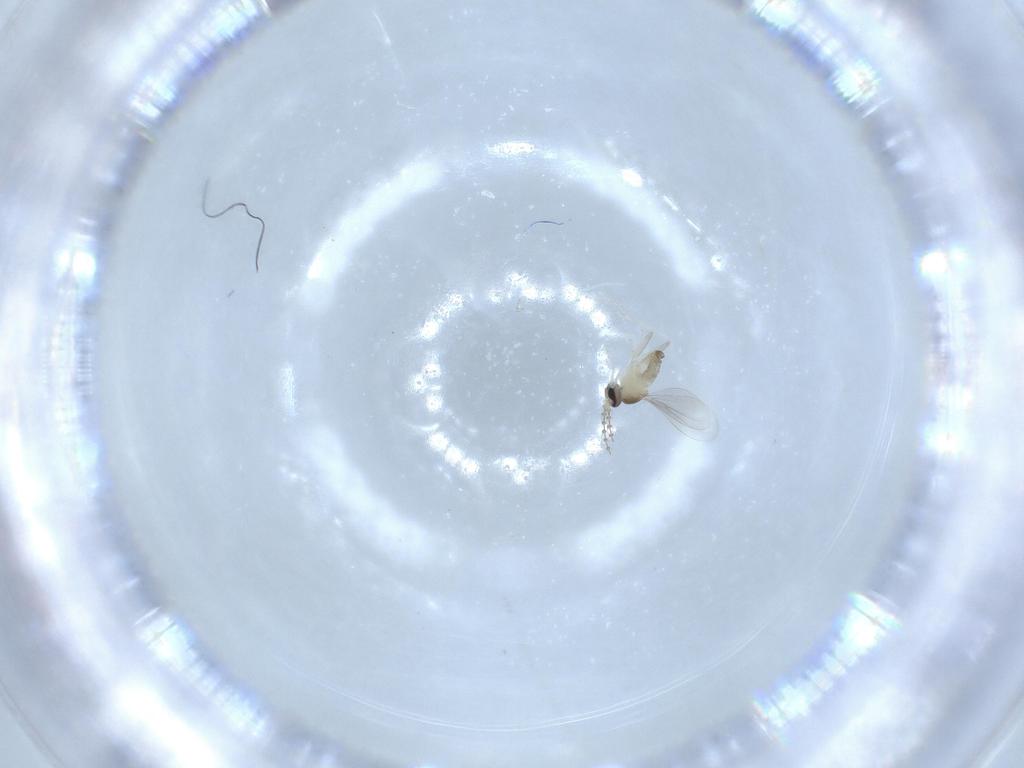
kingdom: Animalia
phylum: Arthropoda
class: Insecta
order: Diptera
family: Cecidomyiidae
